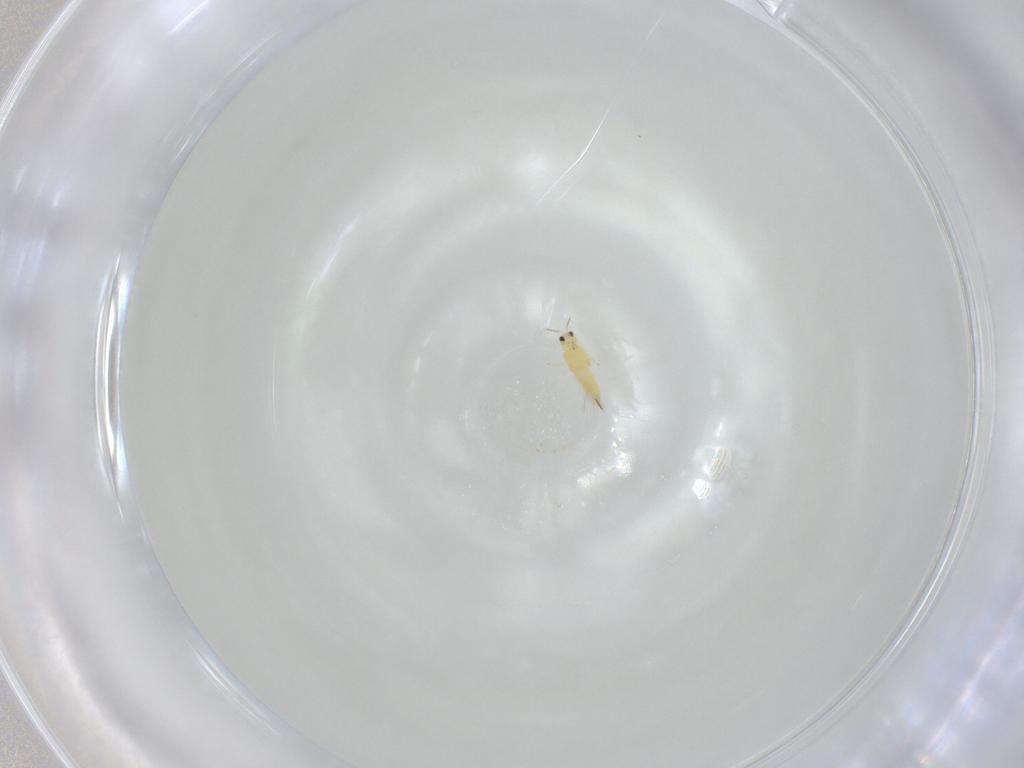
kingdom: Animalia
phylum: Arthropoda
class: Insecta
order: Thysanoptera
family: Thripidae
